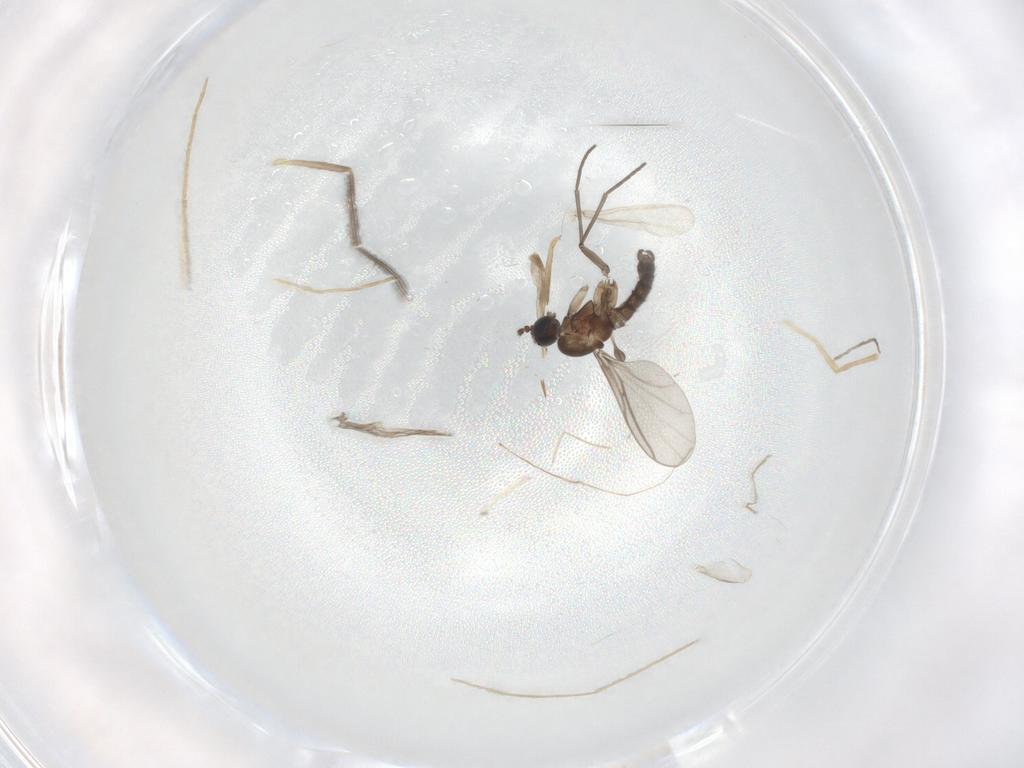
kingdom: Animalia
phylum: Arthropoda
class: Insecta
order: Diptera
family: Chironomidae
